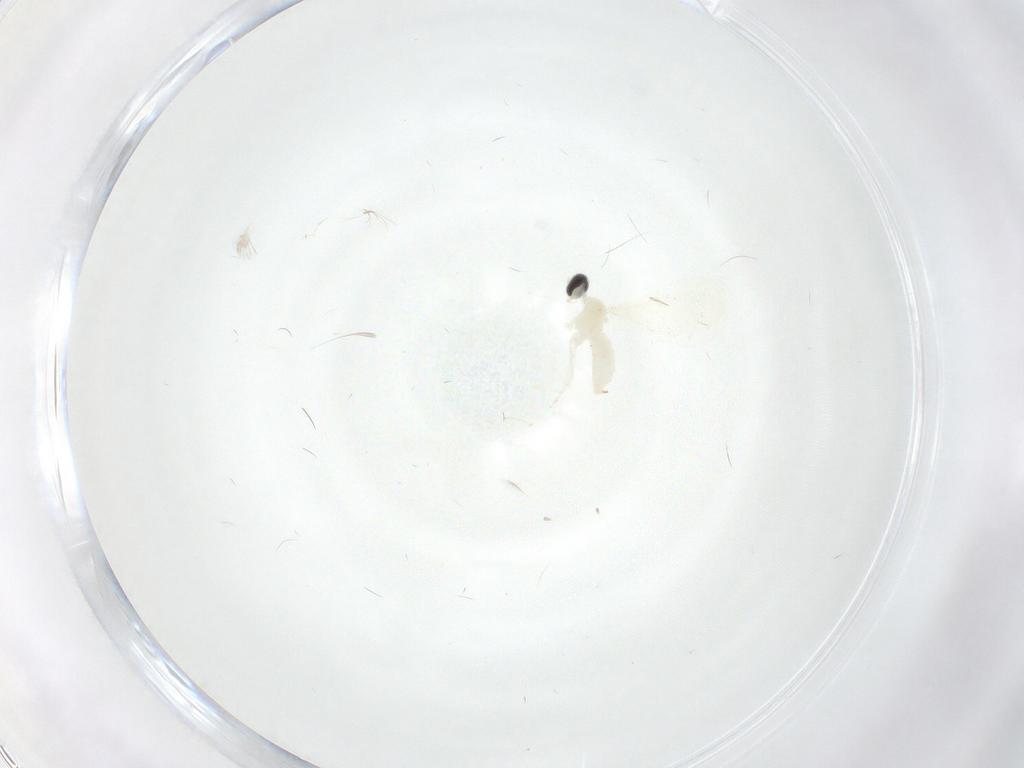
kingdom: Animalia
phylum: Arthropoda
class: Insecta
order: Diptera
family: Cecidomyiidae
